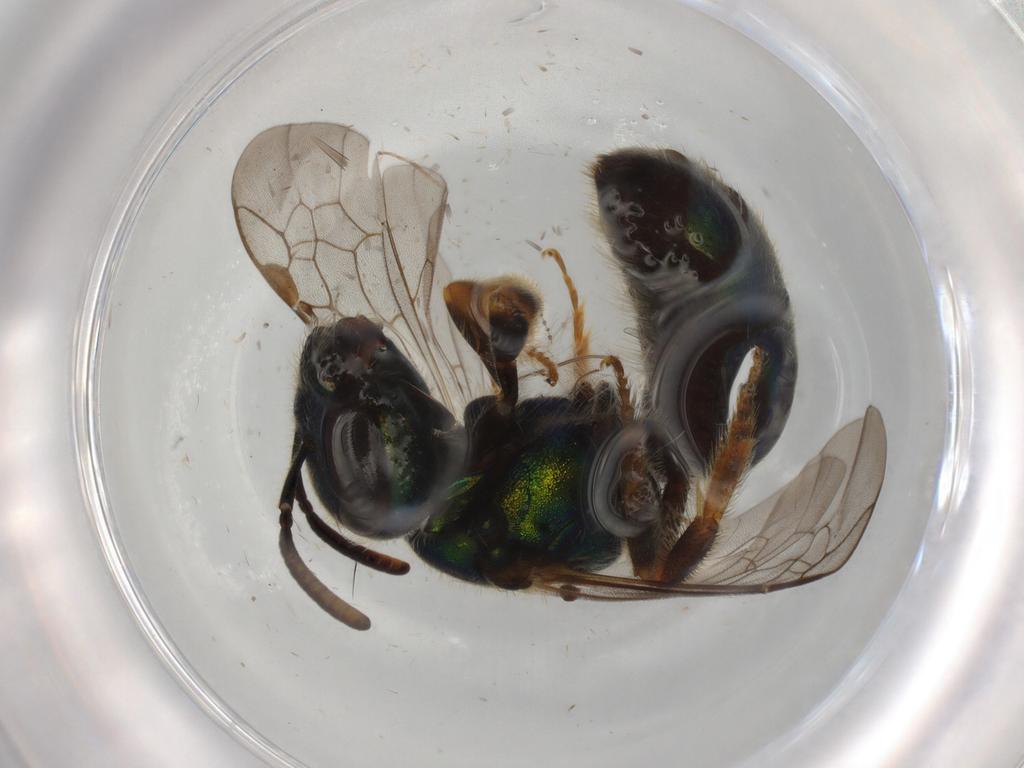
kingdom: Animalia
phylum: Arthropoda
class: Insecta
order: Hymenoptera
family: Halictidae
